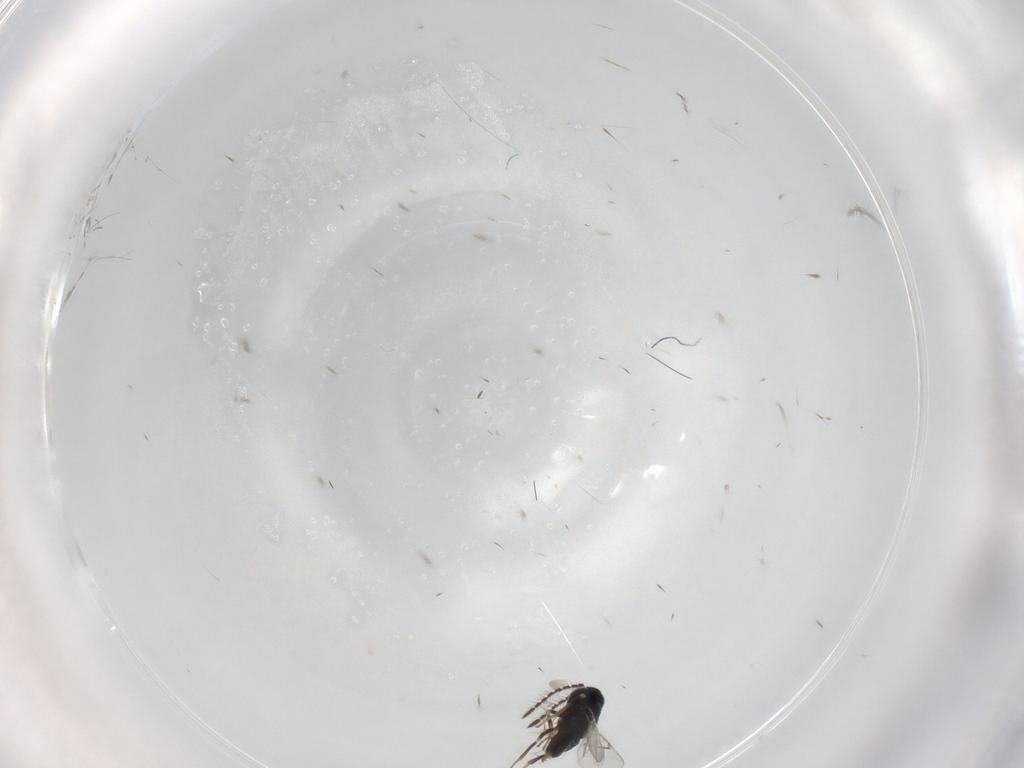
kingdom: Animalia
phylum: Arthropoda
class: Insecta
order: Hymenoptera
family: Encyrtidae
